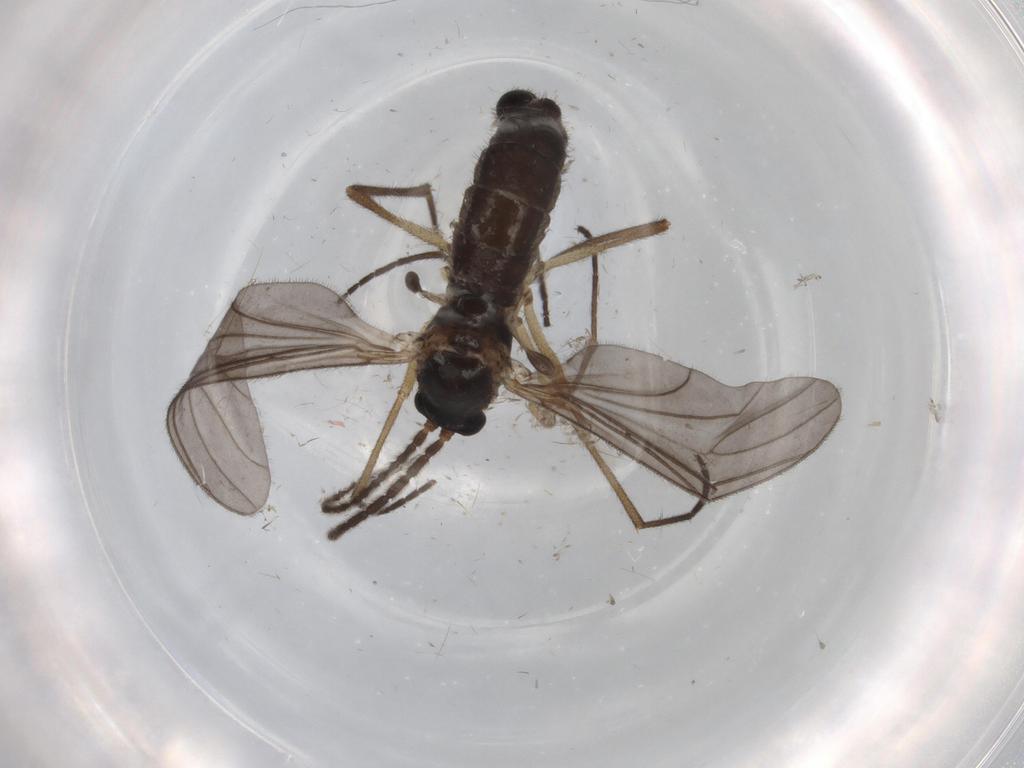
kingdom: Animalia
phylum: Arthropoda
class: Insecta
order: Diptera
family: Sciaridae
